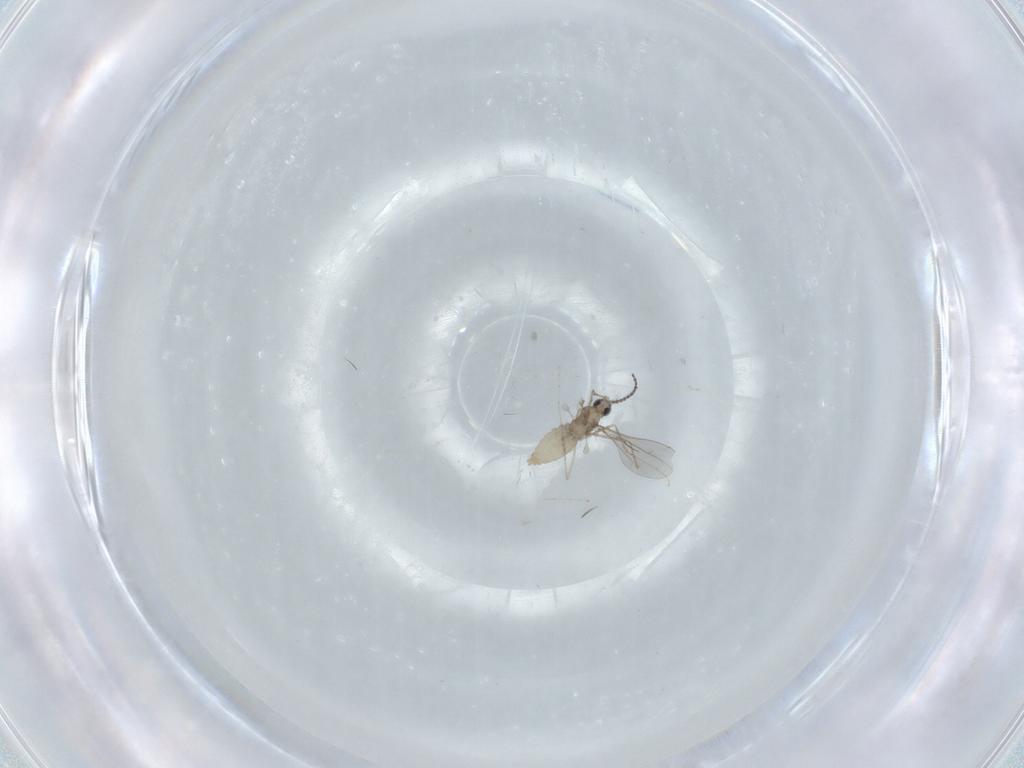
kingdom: Animalia
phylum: Arthropoda
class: Insecta
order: Diptera
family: Cecidomyiidae
